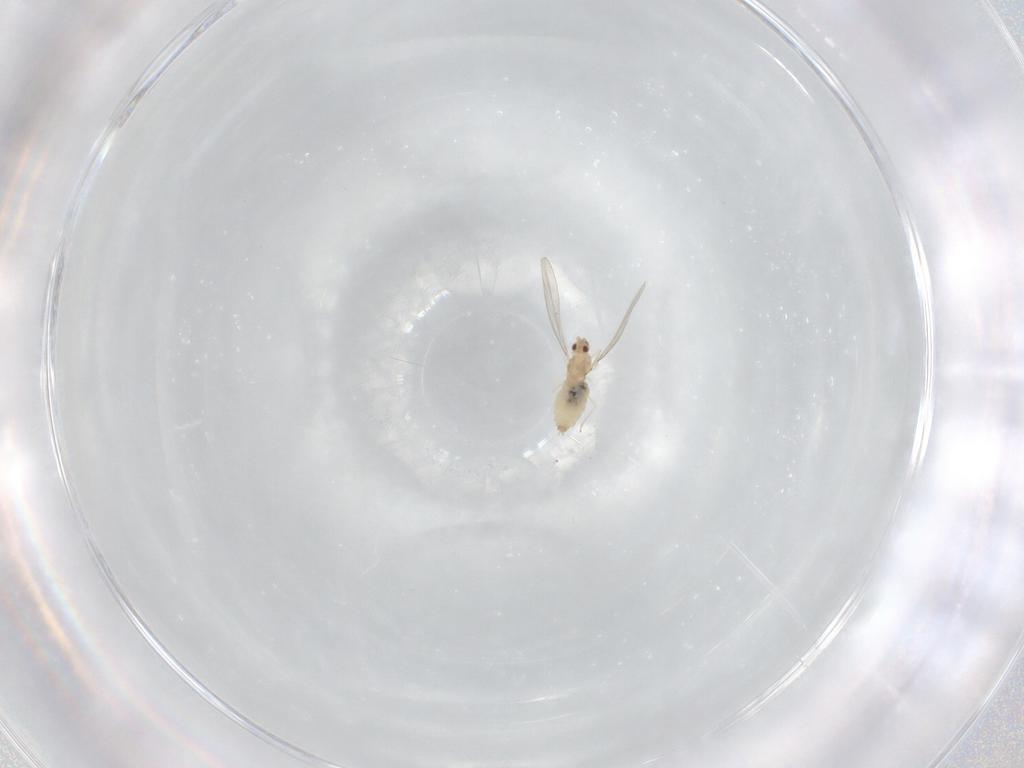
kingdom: Animalia
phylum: Arthropoda
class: Insecta
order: Diptera
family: Cecidomyiidae
